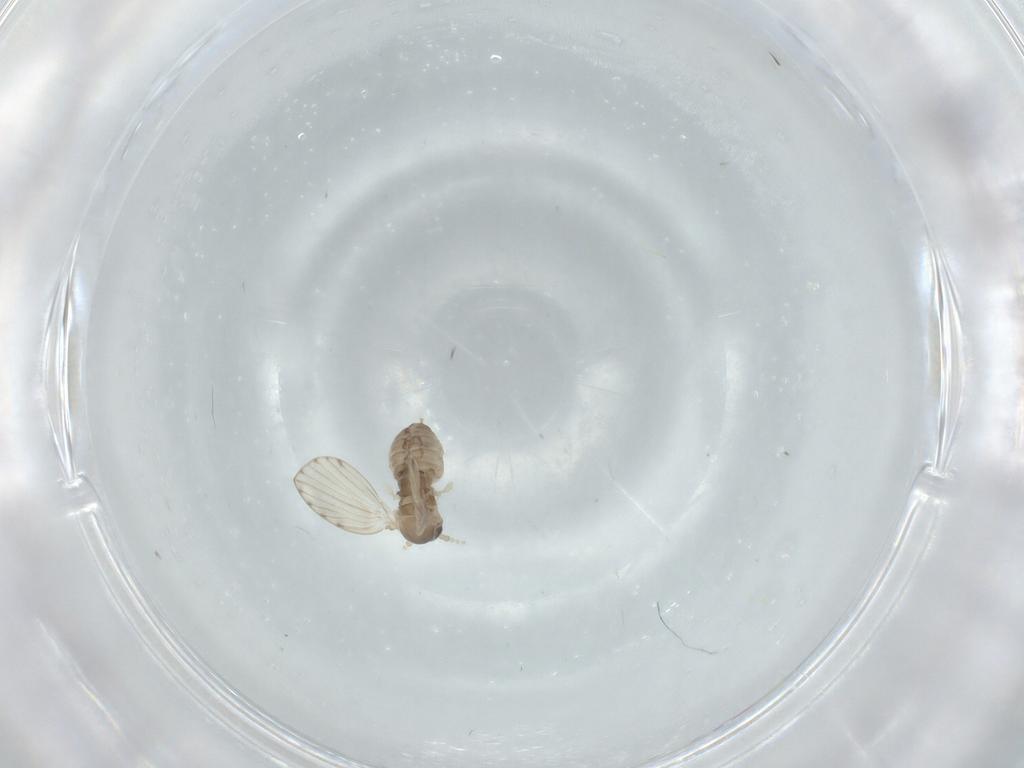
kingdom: Animalia
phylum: Arthropoda
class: Insecta
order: Diptera
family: Psychodidae
